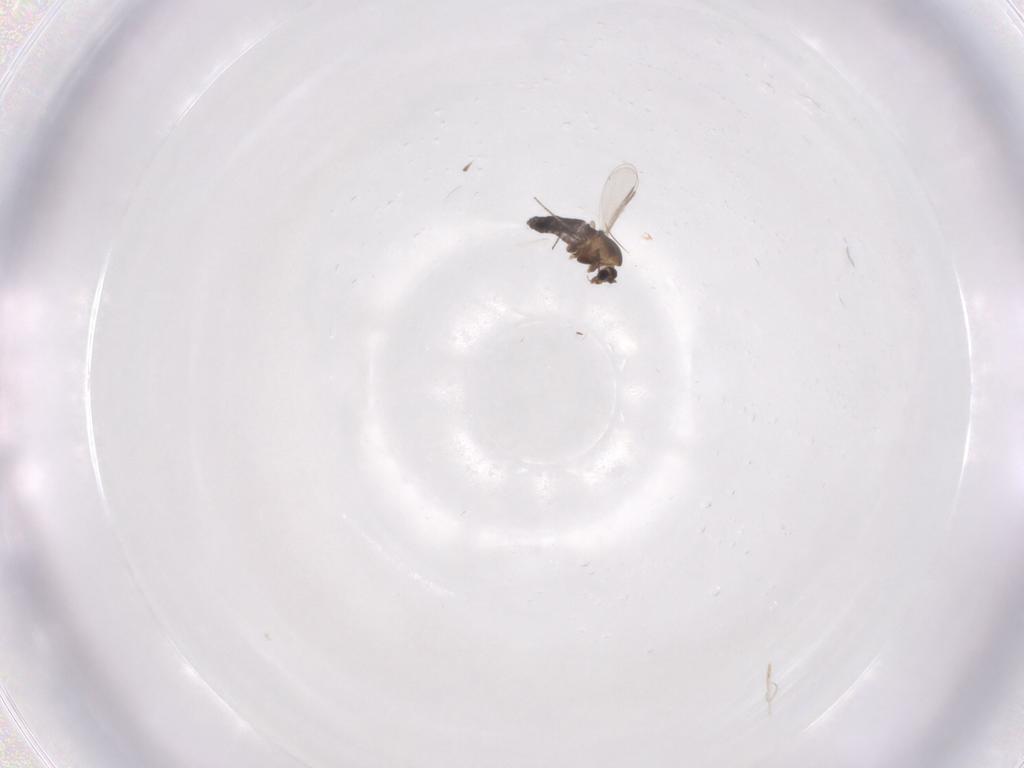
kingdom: Animalia
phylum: Arthropoda
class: Insecta
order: Diptera
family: Chironomidae
